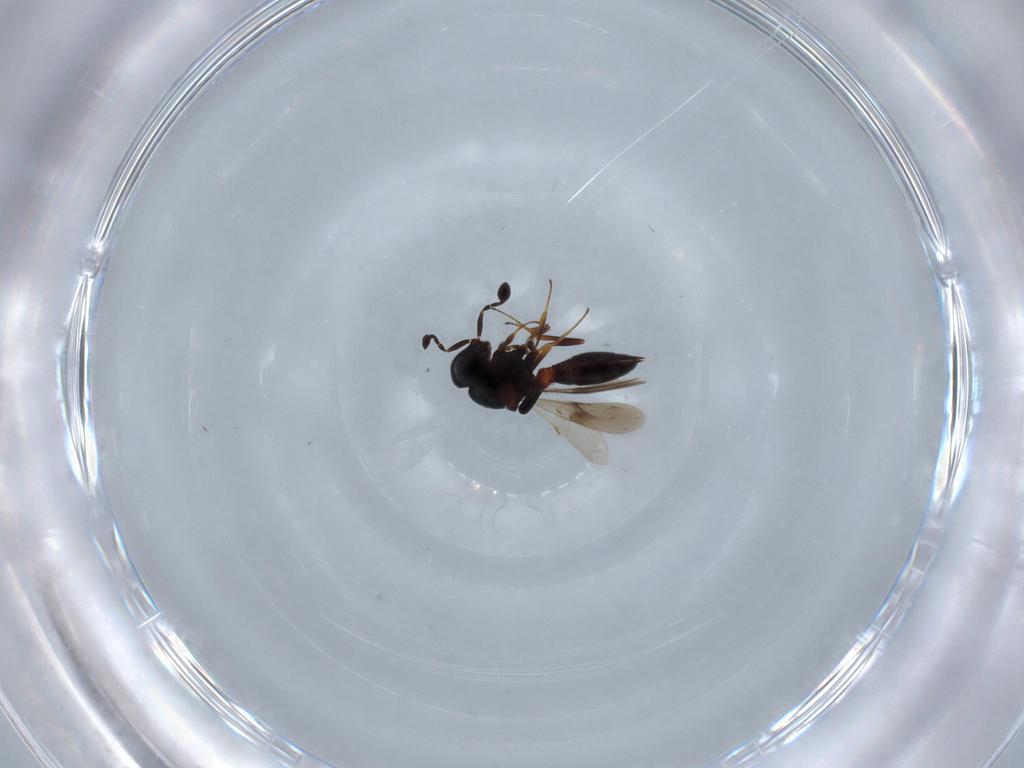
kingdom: Animalia
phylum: Arthropoda
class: Insecta
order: Hymenoptera
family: Scelionidae
